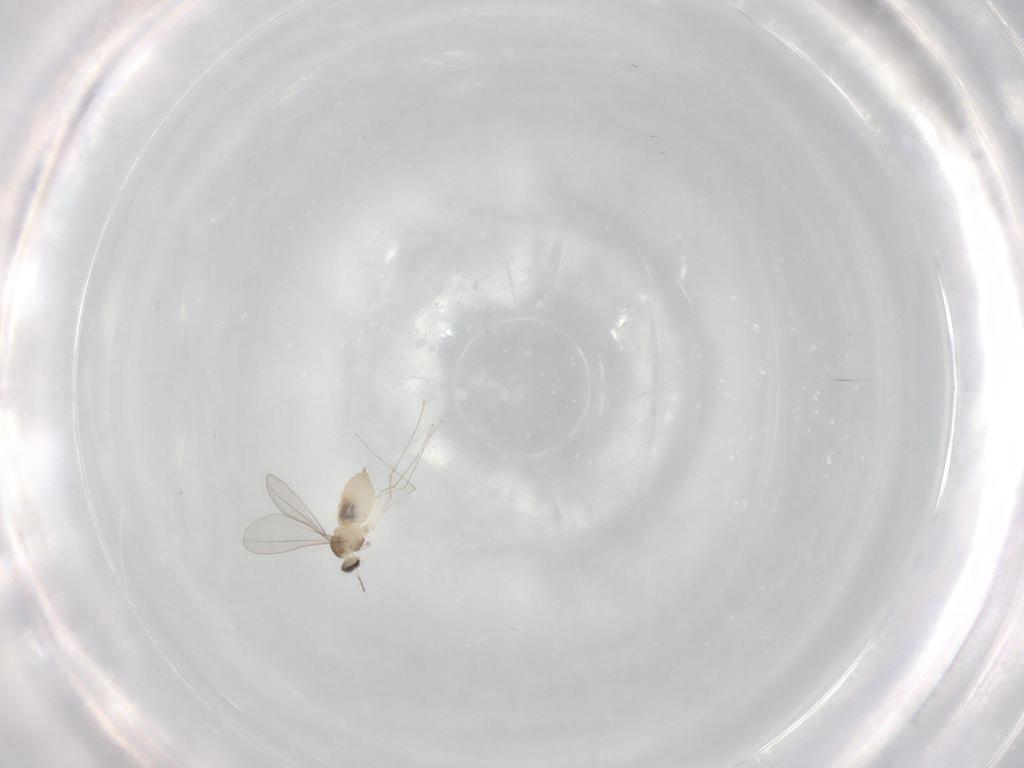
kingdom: Animalia
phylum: Arthropoda
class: Insecta
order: Diptera
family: Cecidomyiidae
